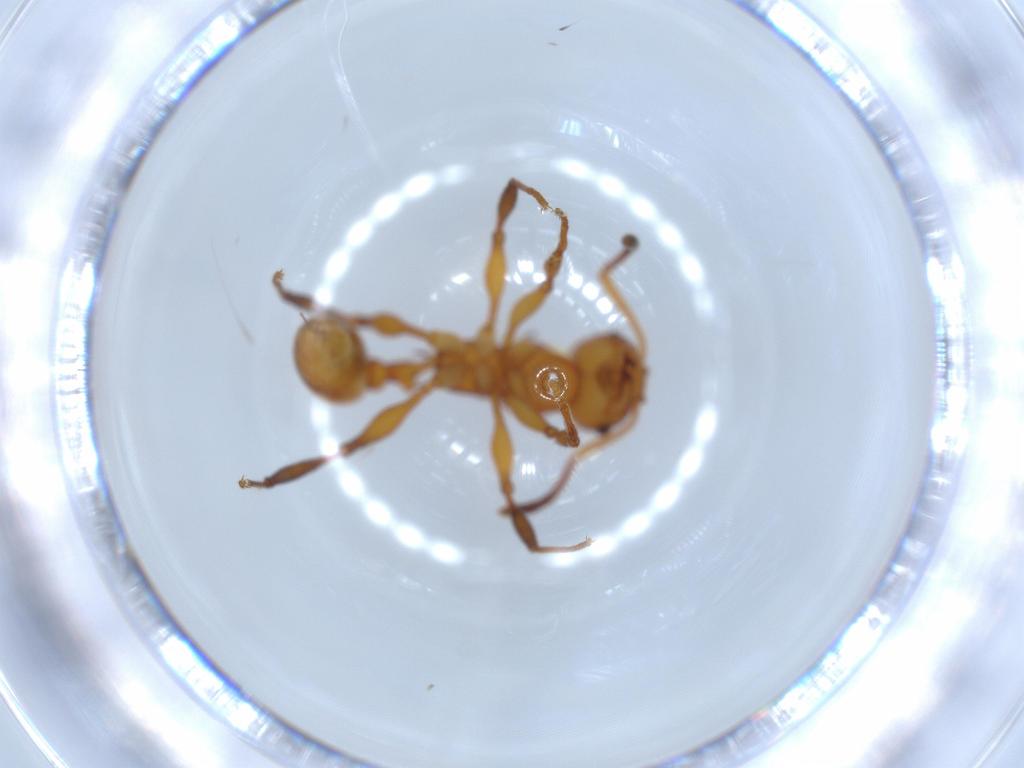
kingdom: Animalia
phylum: Arthropoda
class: Insecta
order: Hymenoptera
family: Formicidae
